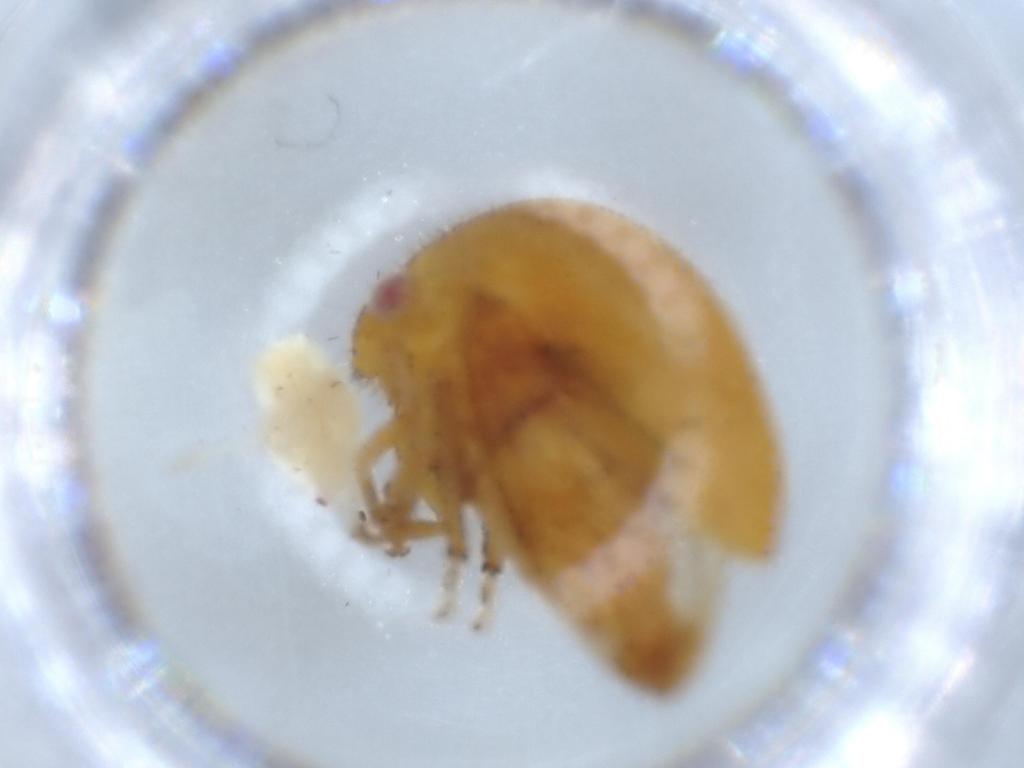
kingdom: Animalia
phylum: Arthropoda
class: Insecta
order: Hemiptera
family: Flatidae
